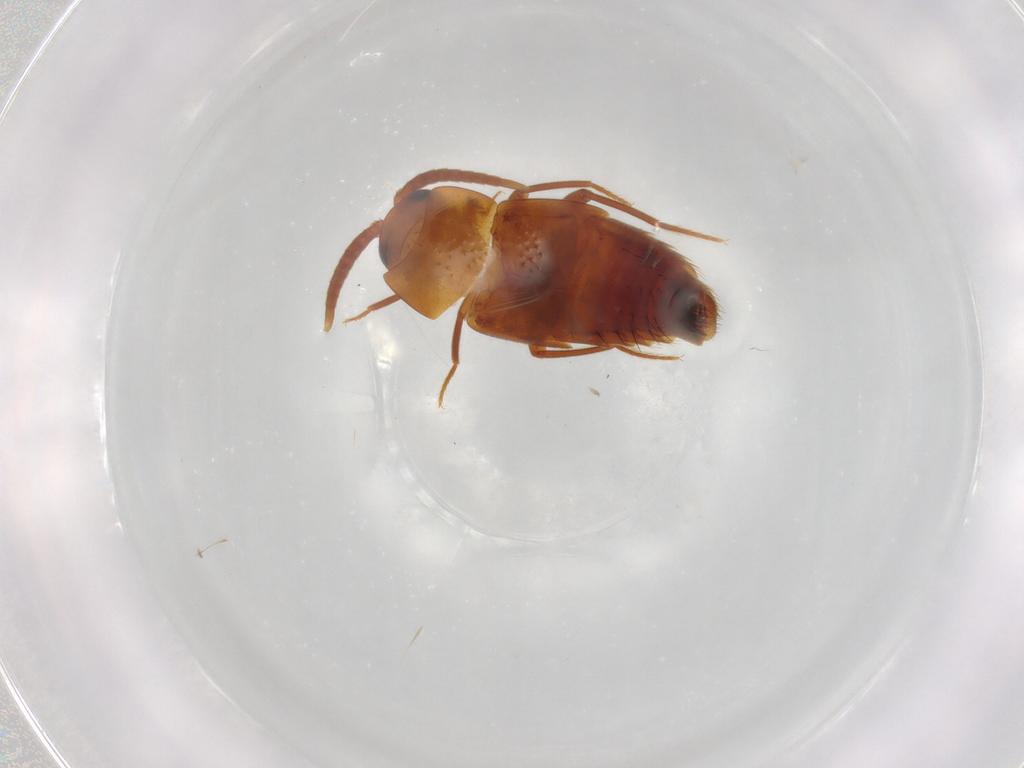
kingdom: Animalia
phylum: Arthropoda
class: Insecta
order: Coleoptera
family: Staphylinidae
